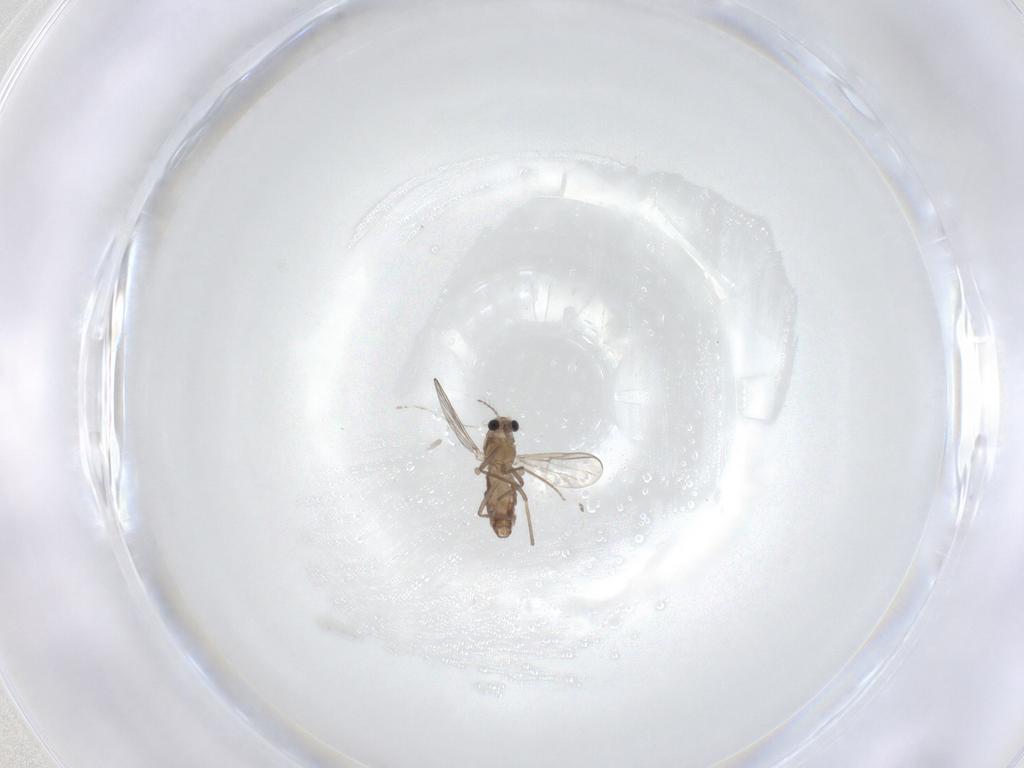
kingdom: Animalia
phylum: Arthropoda
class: Insecta
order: Diptera
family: Chironomidae
